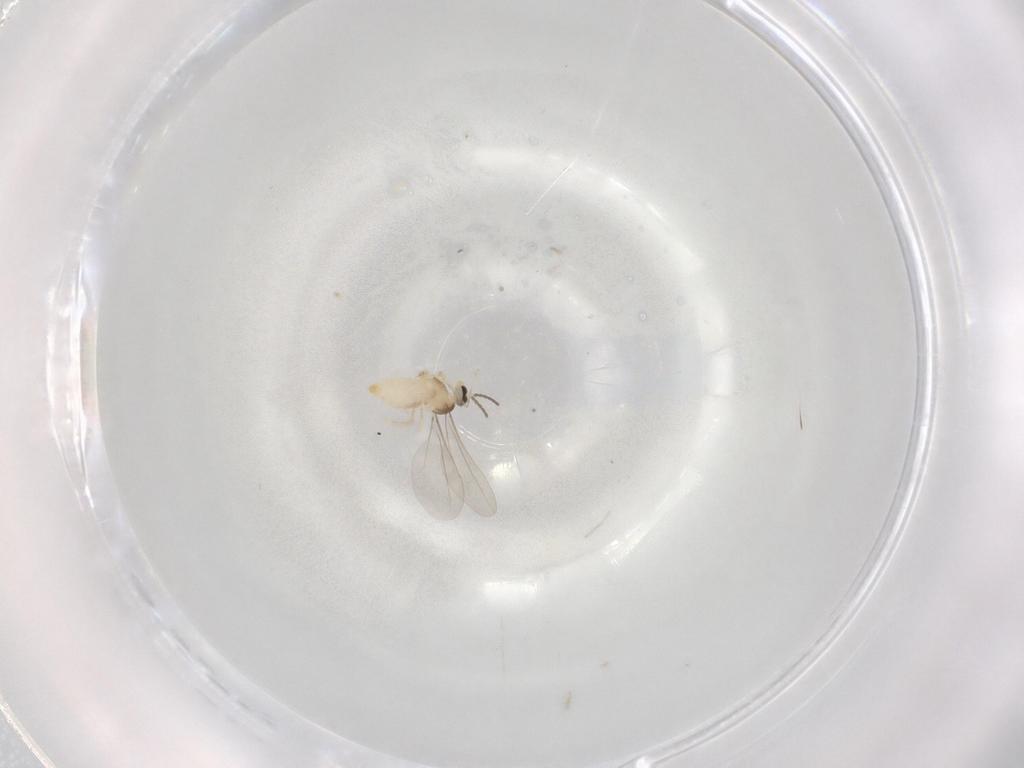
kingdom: Animalia
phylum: Arthropoda
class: Insecta
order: Diptera
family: Cecidomyiidae
